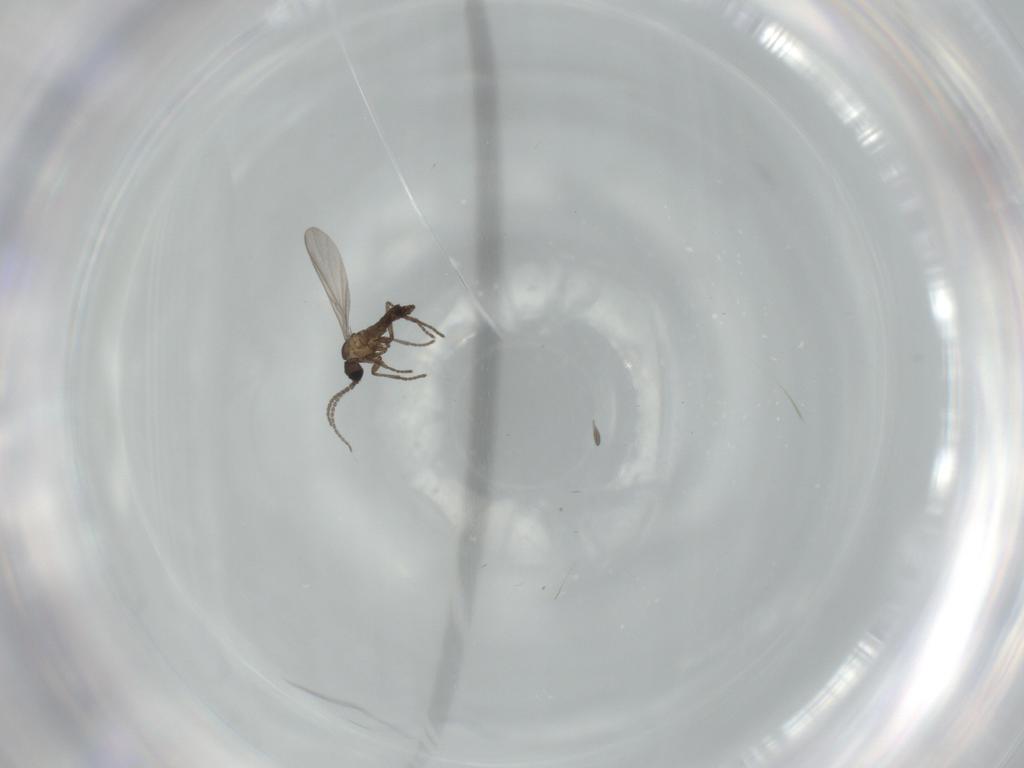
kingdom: Animalia
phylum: Arthropoda
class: Insecta
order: Diptera
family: Sciaridae
